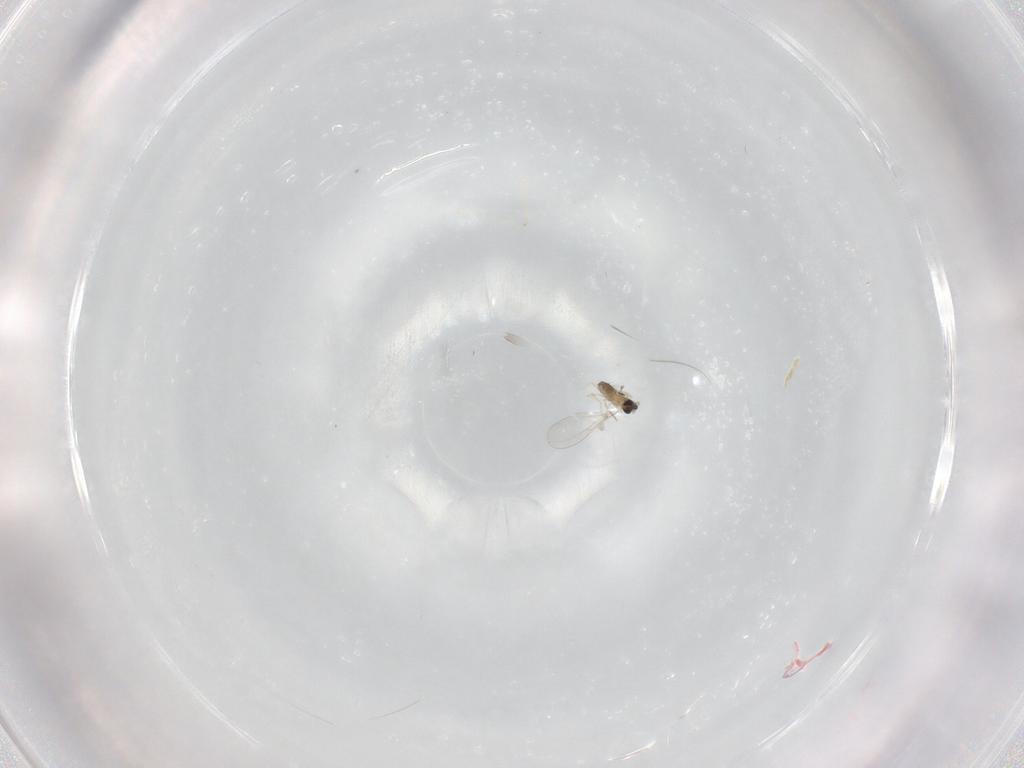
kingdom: Animalia
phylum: Arthropoda
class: Insecta
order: Diptera
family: Cecidomyiidae
